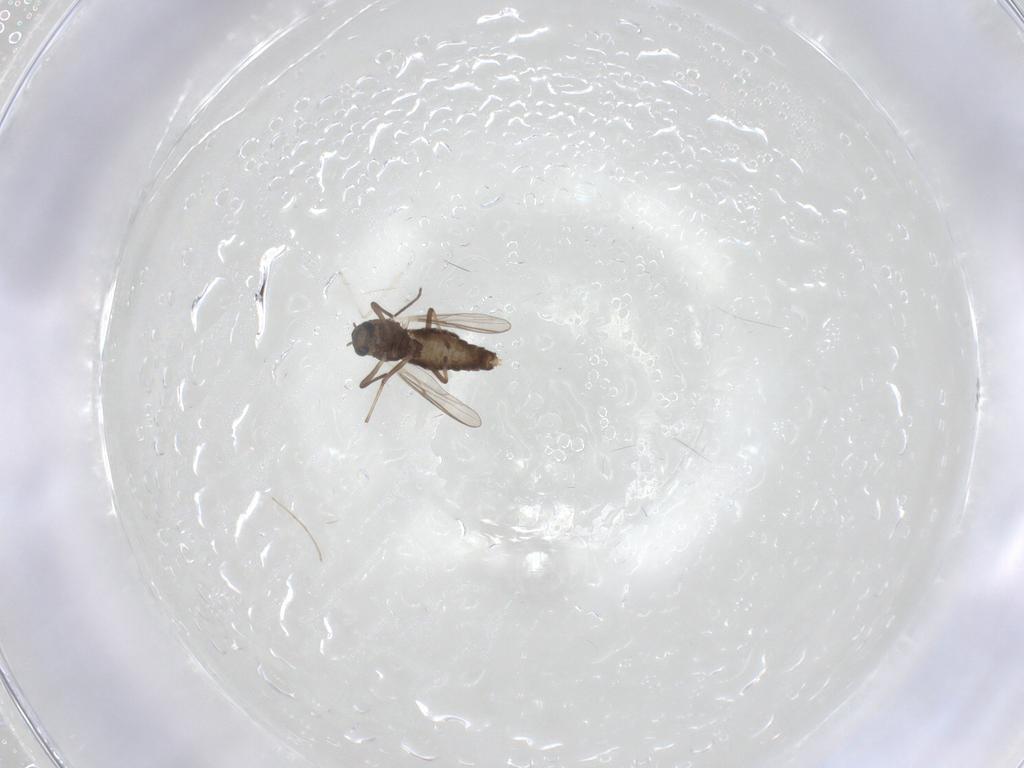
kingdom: Animalia
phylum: Arthropoda
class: Insecta
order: Diptera
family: Chironomidae
